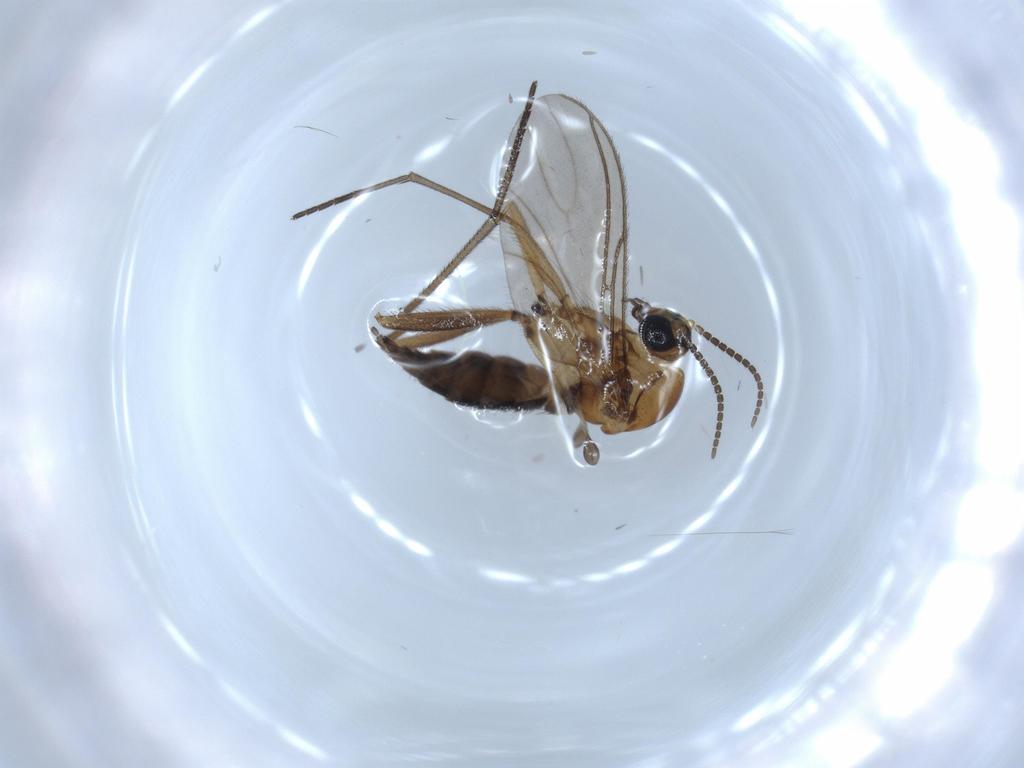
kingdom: Animalia
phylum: Arthropoda
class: Insecta
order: Diptera
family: Sciaridae
